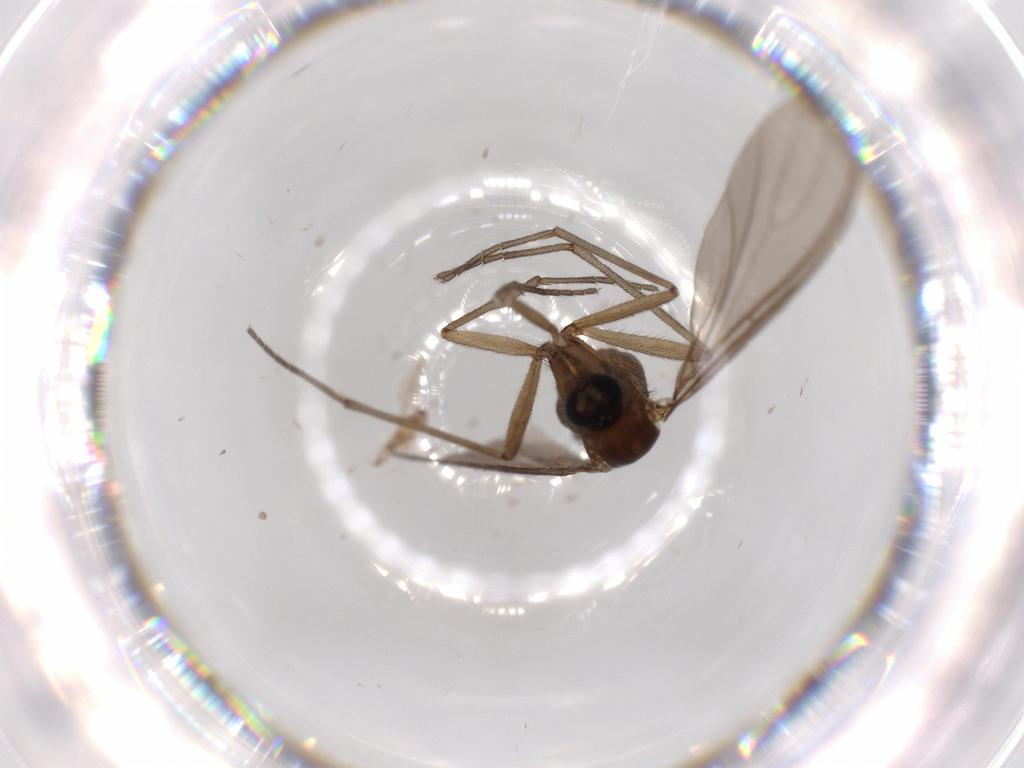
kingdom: Animalia
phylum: Arthropoda
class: Insecta
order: Diptera
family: Sciaridae
